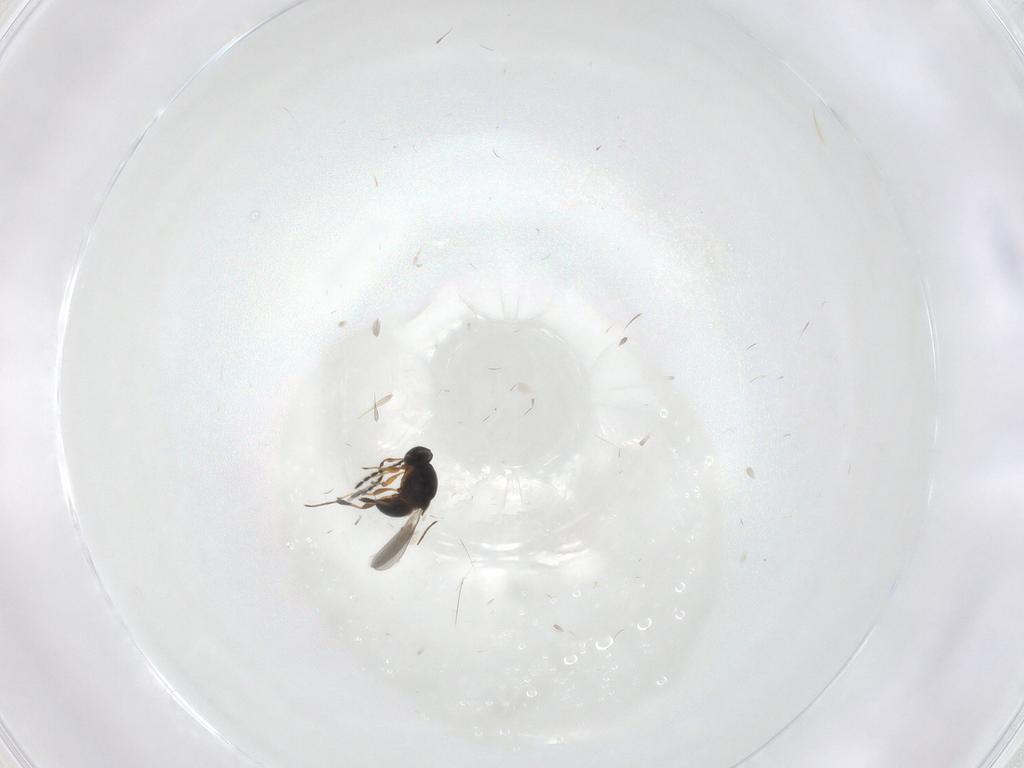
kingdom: Animalia
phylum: Arthropoda
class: Insecta
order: Hymenoptera
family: Platygastridae
